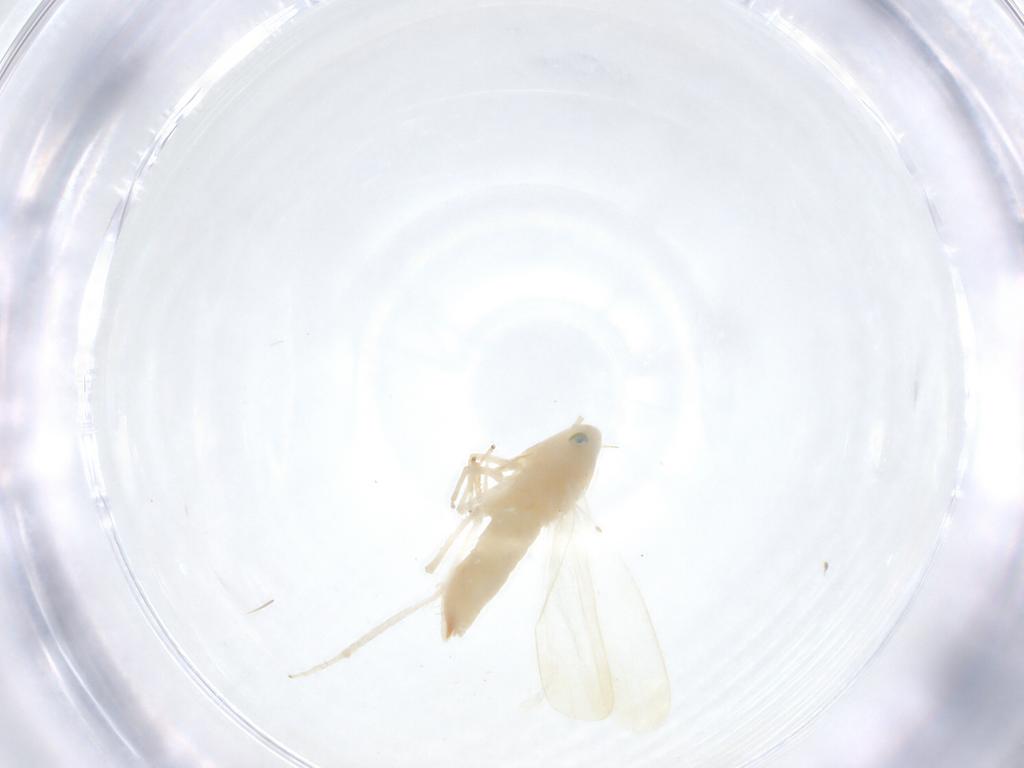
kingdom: Animalia
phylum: Arthropoda
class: Insecta
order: Hemiptera
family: Cicadellidae
